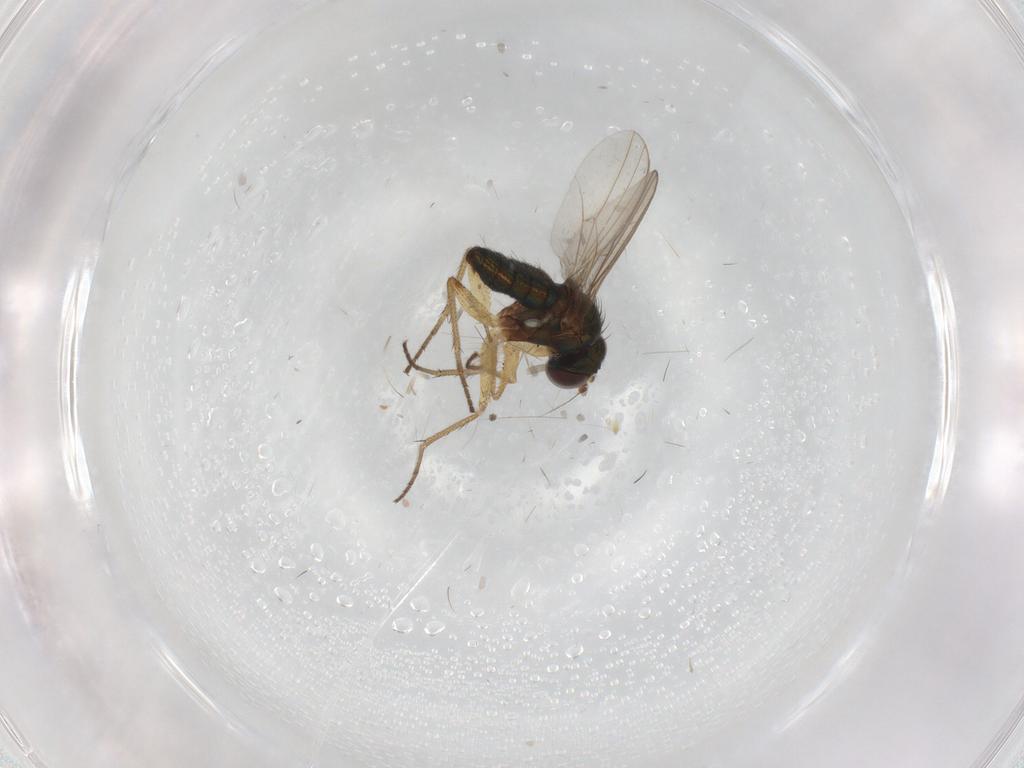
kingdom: Animalia
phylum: Arthropoda
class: Insecta
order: Diptera
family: Chironomidae
